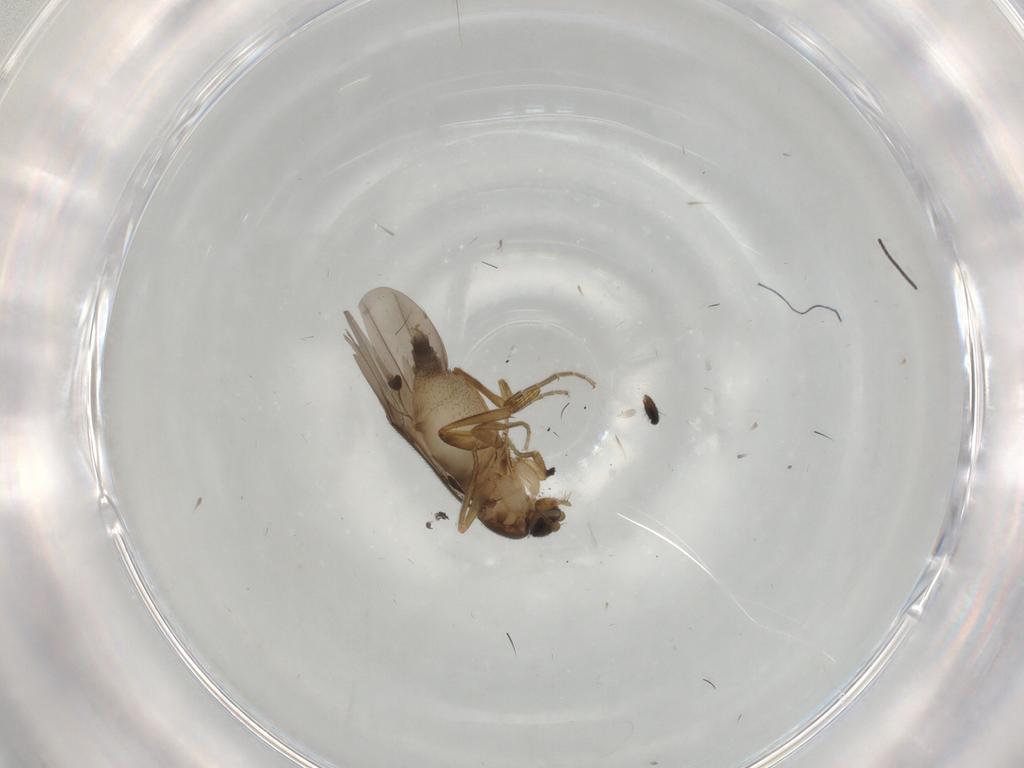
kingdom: Animalia
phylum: Arthropoda
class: Insecta
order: Diptera
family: Phoridae
